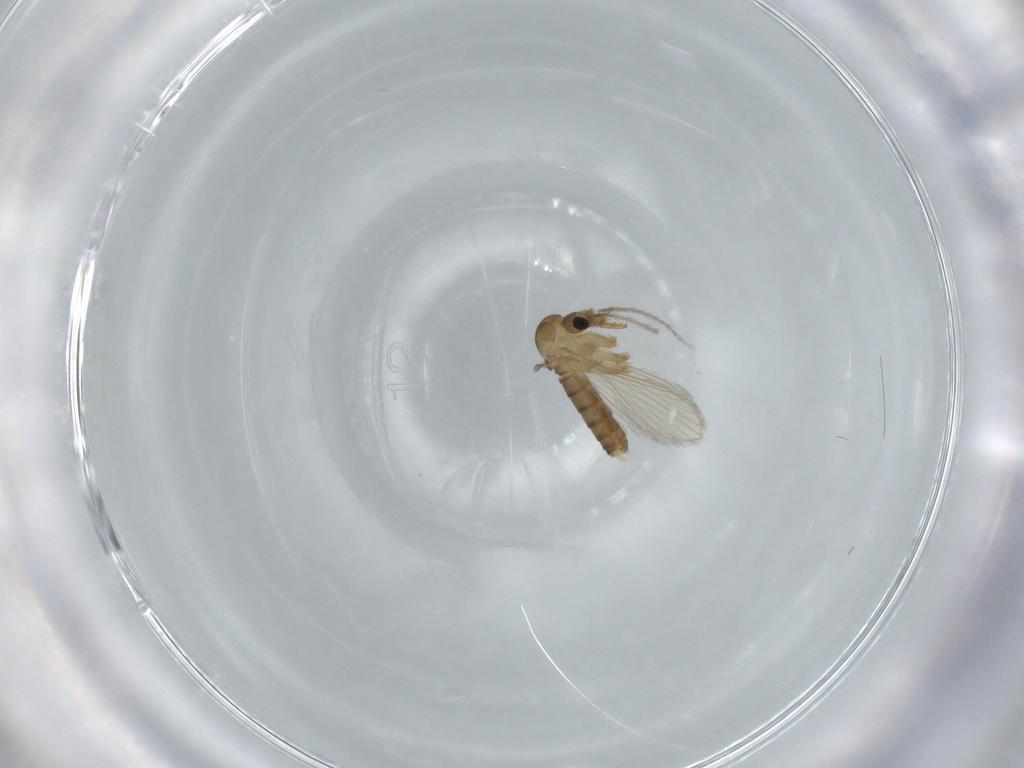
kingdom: Animalia
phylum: Arthropoda
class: Insecta
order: Diptera
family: Psychodidae
